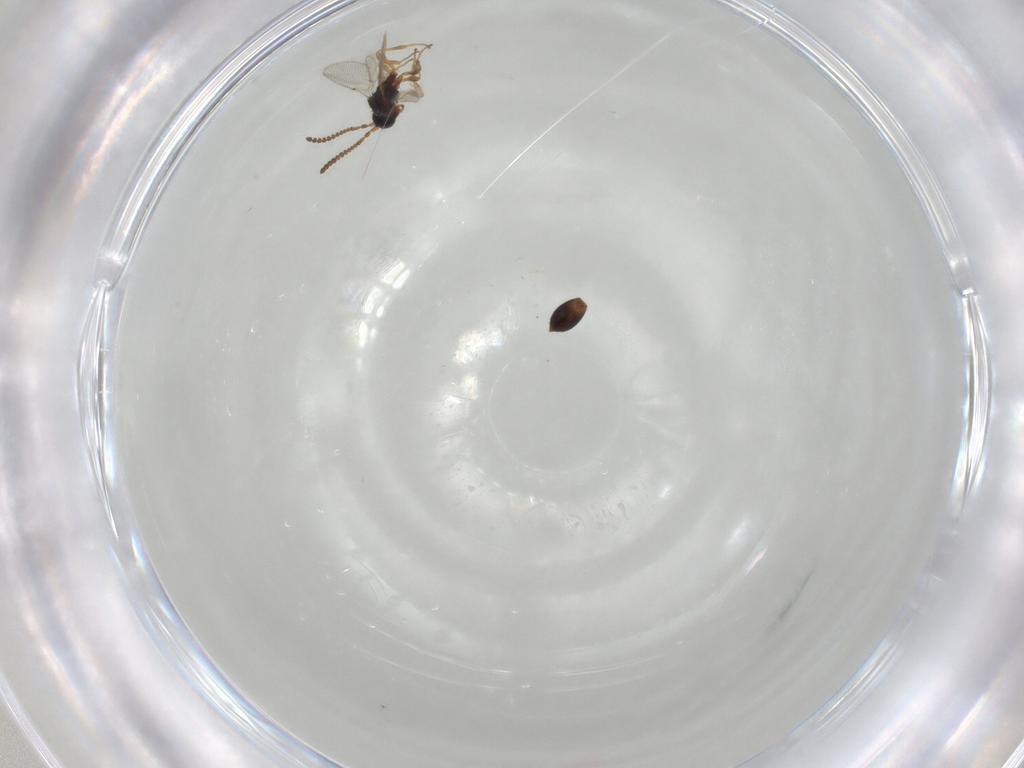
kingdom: Animalia
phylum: Arthropoda
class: Insecta
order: Hymenoptera
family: Diapriidae
